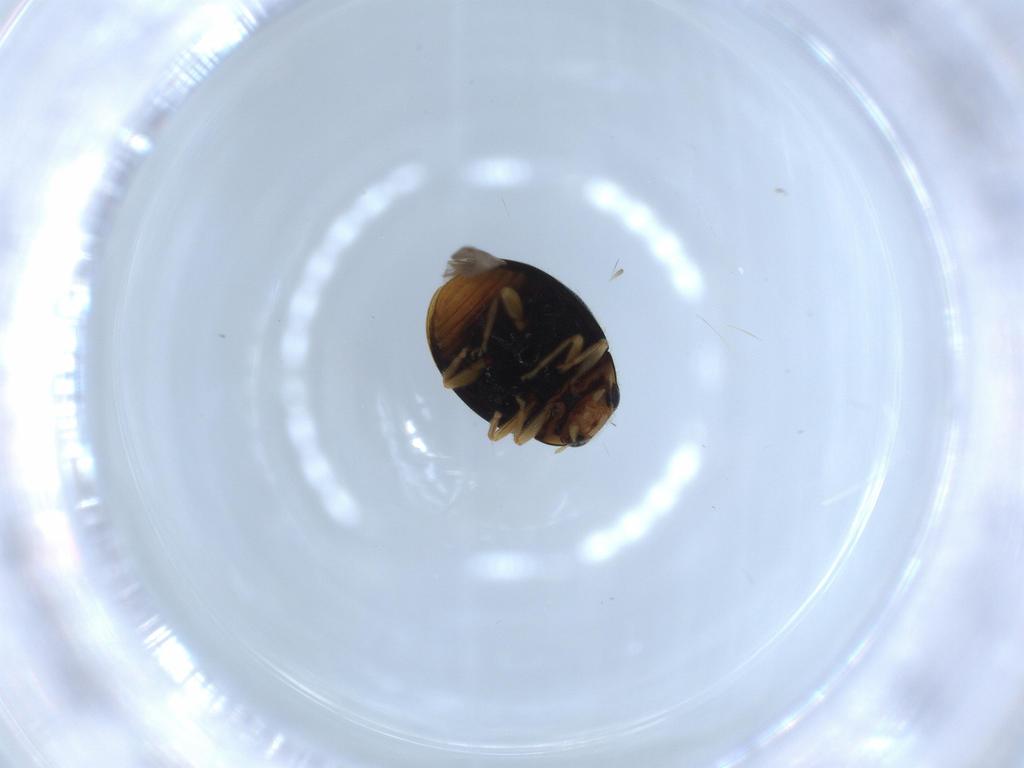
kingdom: Animalia
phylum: Arthropoda
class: Insecta
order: Coleoptera
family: Coccinellidae
